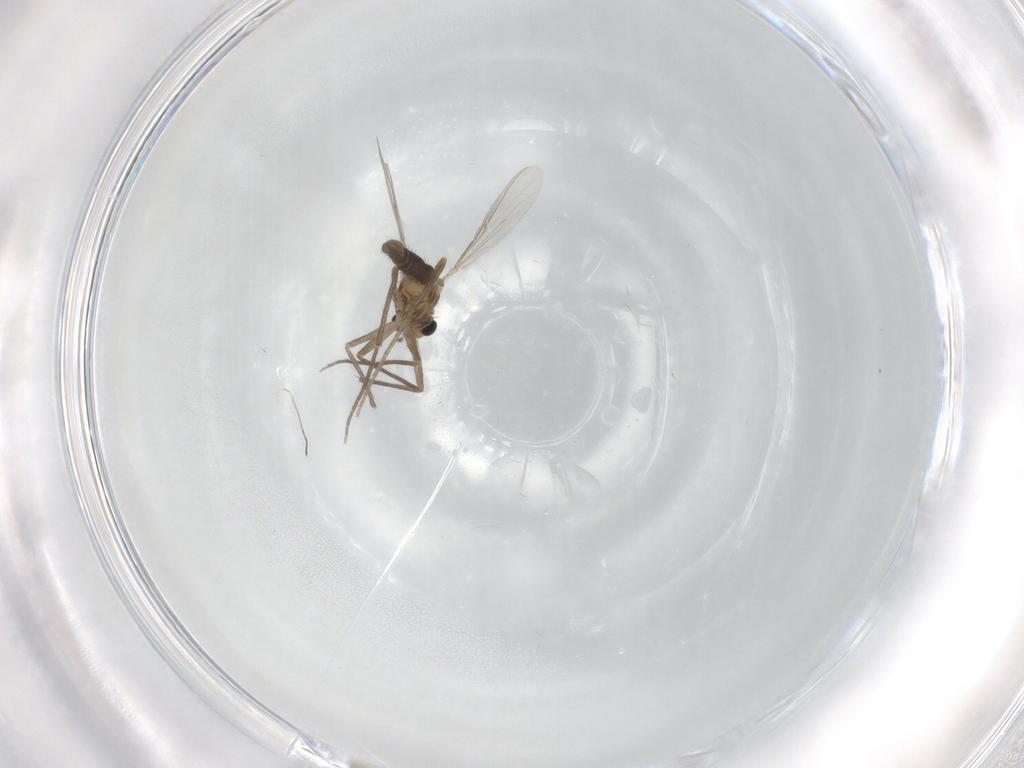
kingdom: Animalia
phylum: Arthropoda
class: Insecta
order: Diptera
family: Chironomidae
